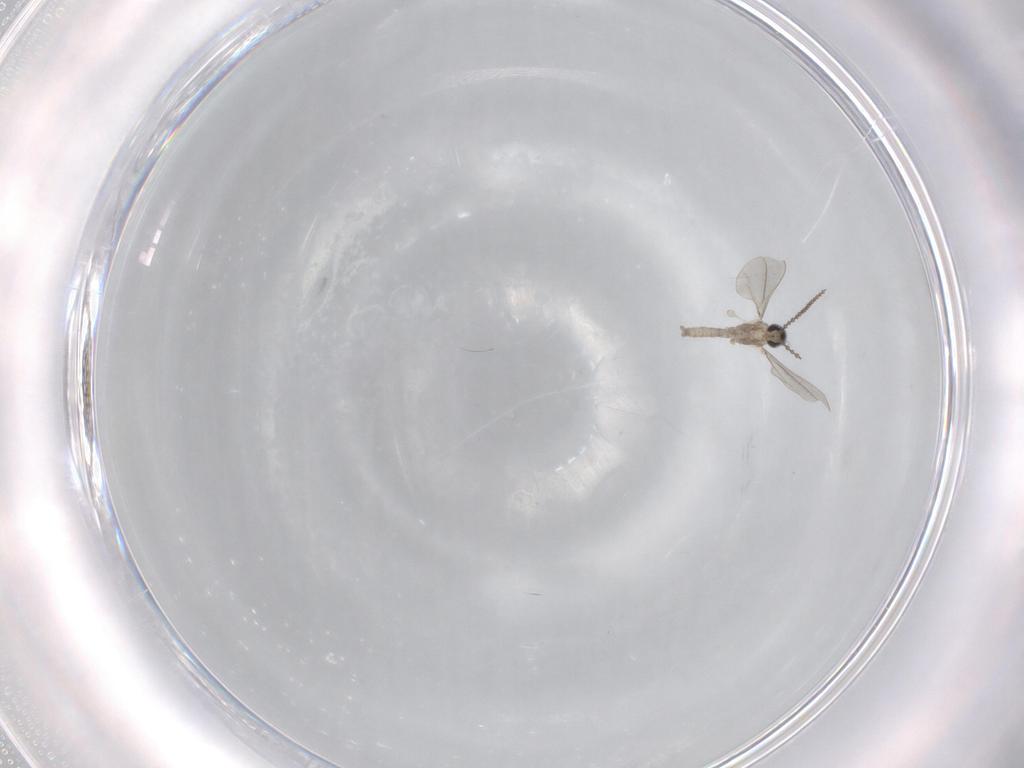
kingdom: Animalia
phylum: Arthropoda
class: Insecta
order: Diptera
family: Cecidomyiidae
